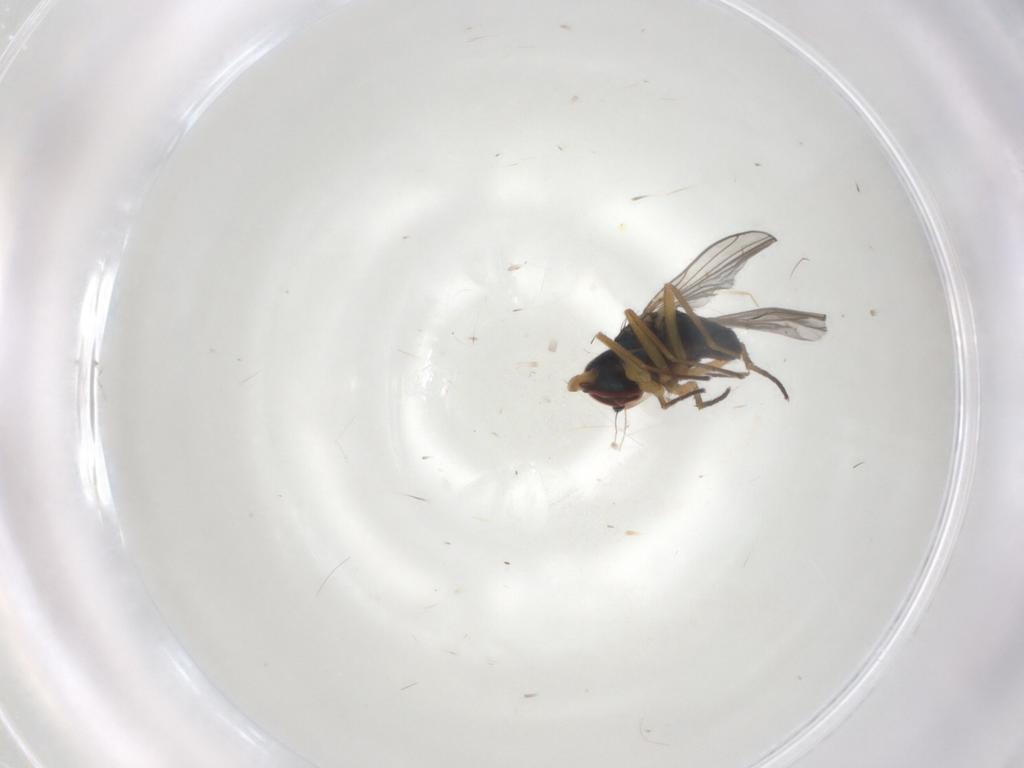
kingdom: Animalia
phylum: Arthropoda
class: Insecta
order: Diptera
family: Dolichopodidae
